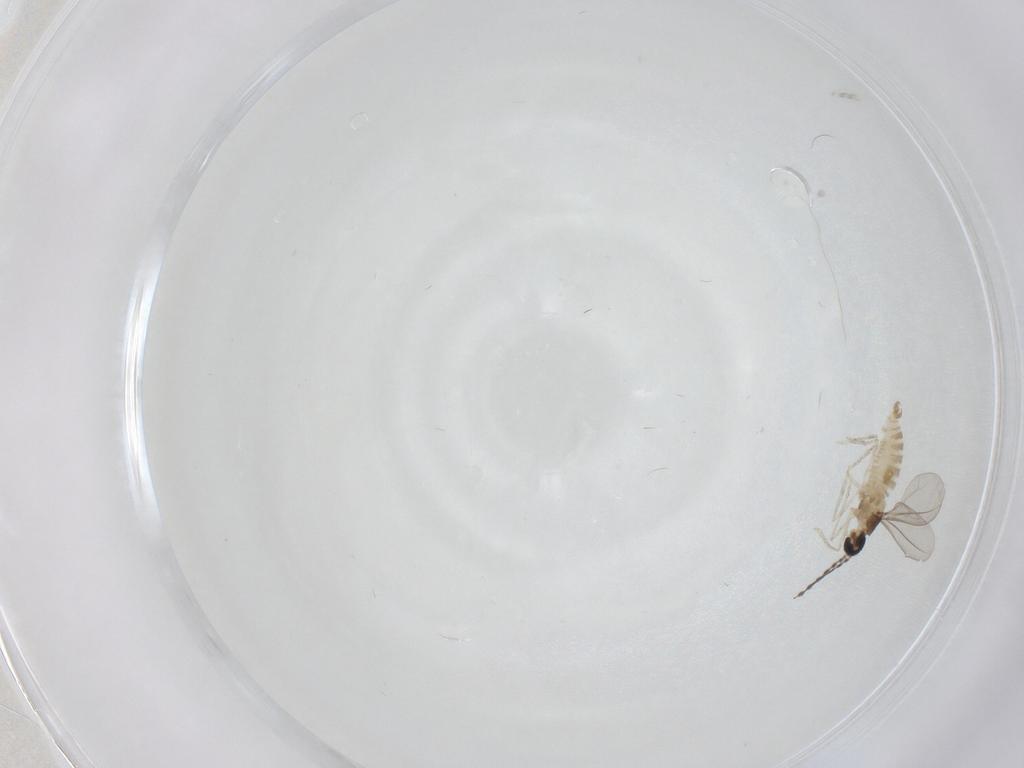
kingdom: Animalia
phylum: Arthropoda
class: Insecta
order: Diptera
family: Cecidomyiidae
